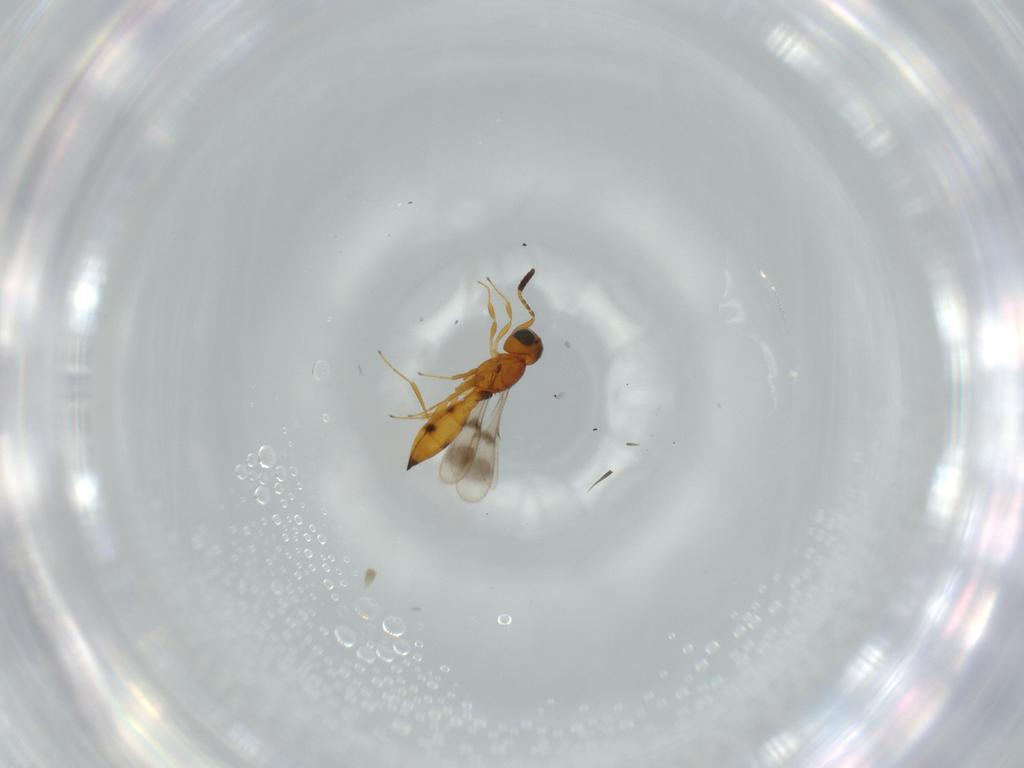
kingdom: Animalia
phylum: Arthropoda
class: Insecta
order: Hymenoptera
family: Scelionidae
